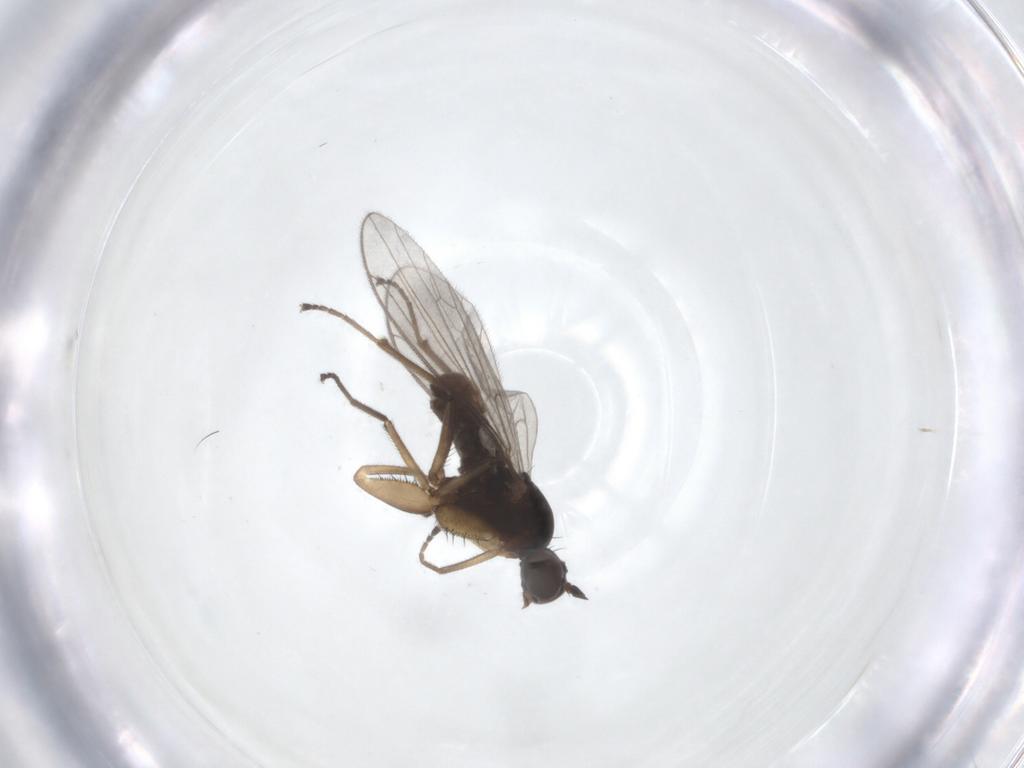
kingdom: Animalia
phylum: Arthropoda
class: Insecta
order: Diptera
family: Empididae
